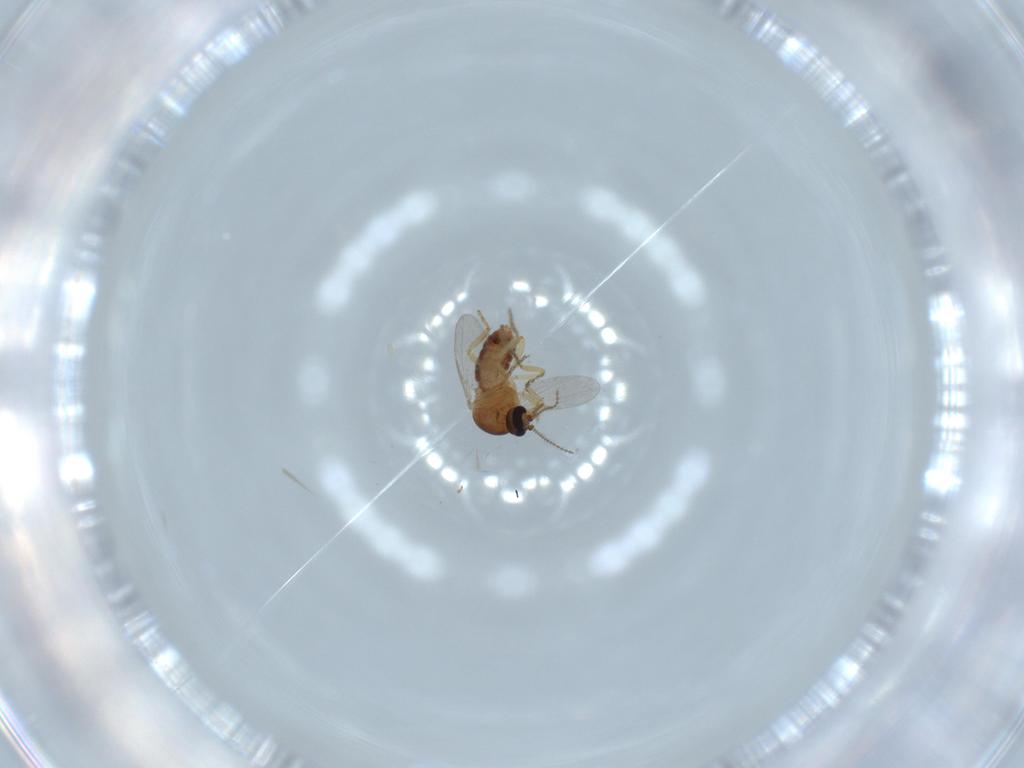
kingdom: Animalia
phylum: Arthropoda
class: Insecta
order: Diptera
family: Ceratopogonidae
